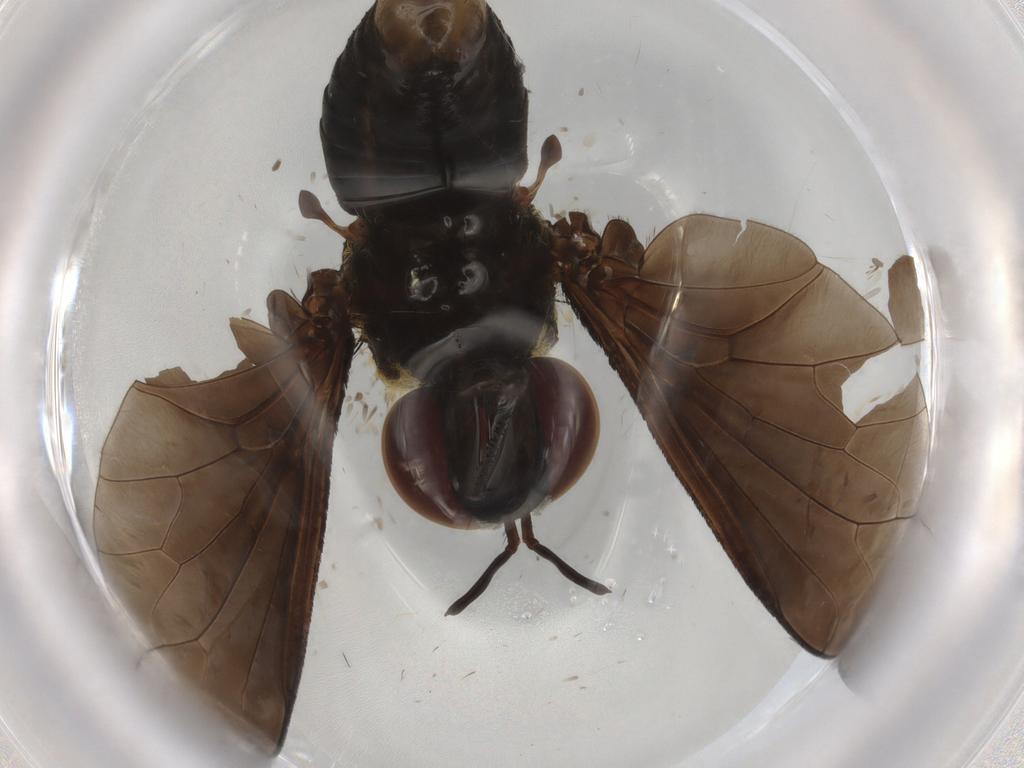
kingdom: Animalia
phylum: Arthropoda
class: Insecta
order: Diptera
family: Bombyliidae
